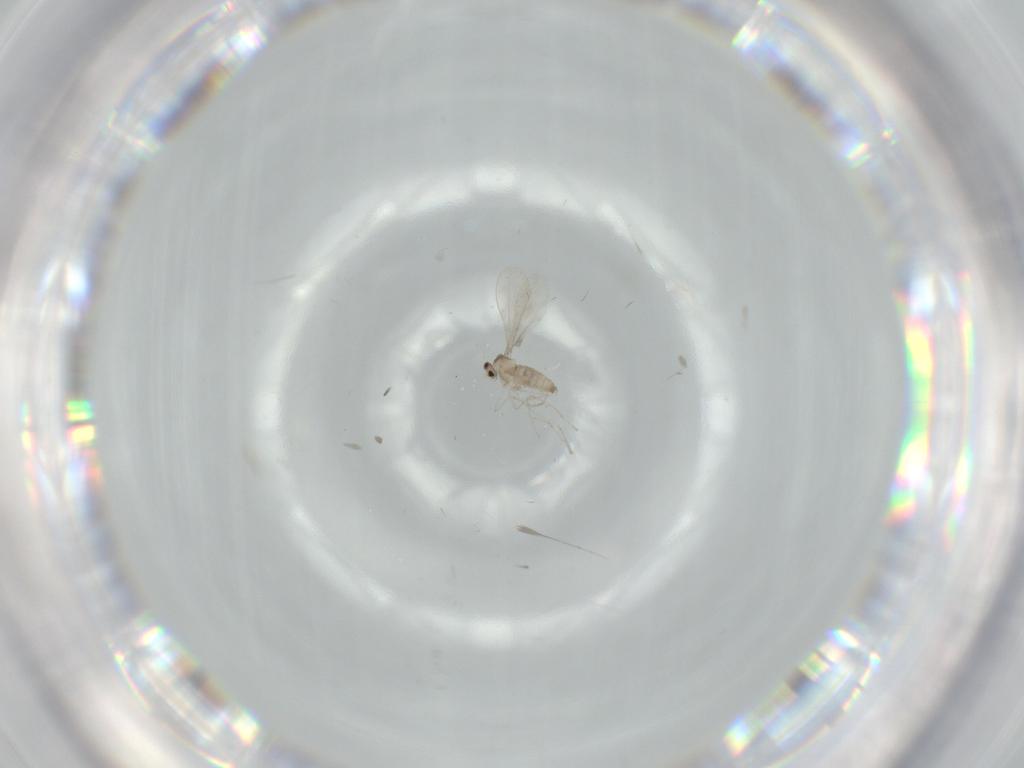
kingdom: Animalia
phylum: Arthropoda
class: Insecta
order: Diptera
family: Cecidomyiidae
